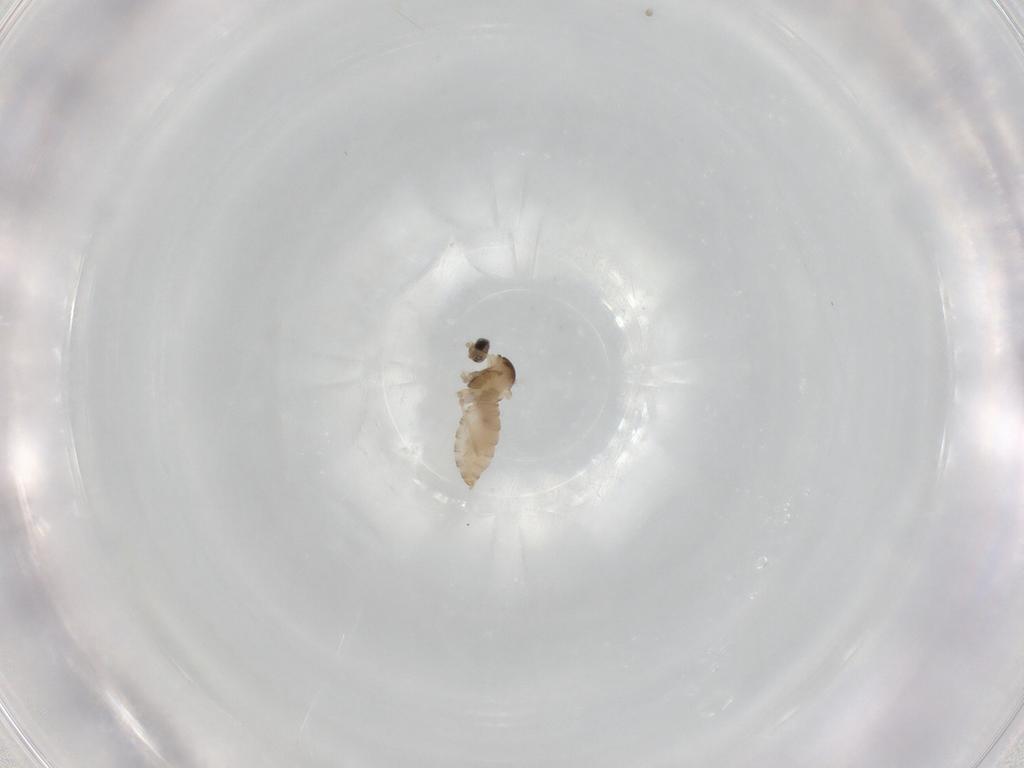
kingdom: Animalia
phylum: Arthropoda
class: Insecta
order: Diptera
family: Cecidomyiidae
